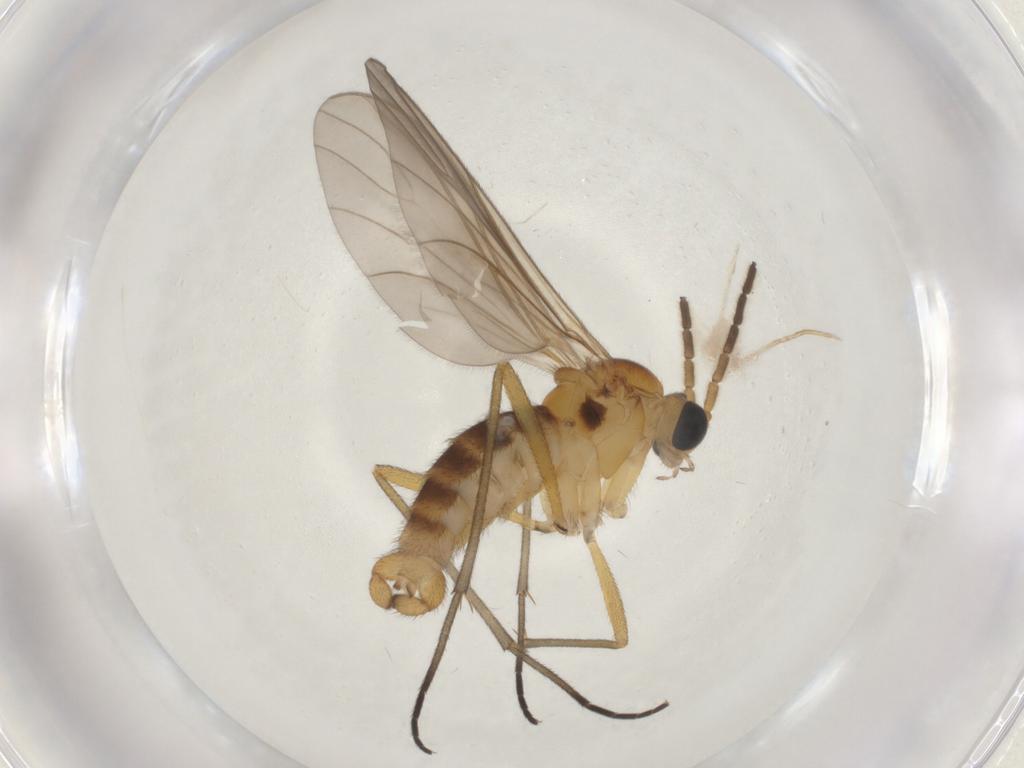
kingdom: Animalia
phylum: Arthropoda
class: Insecta
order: Diptera
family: Sciaridae
